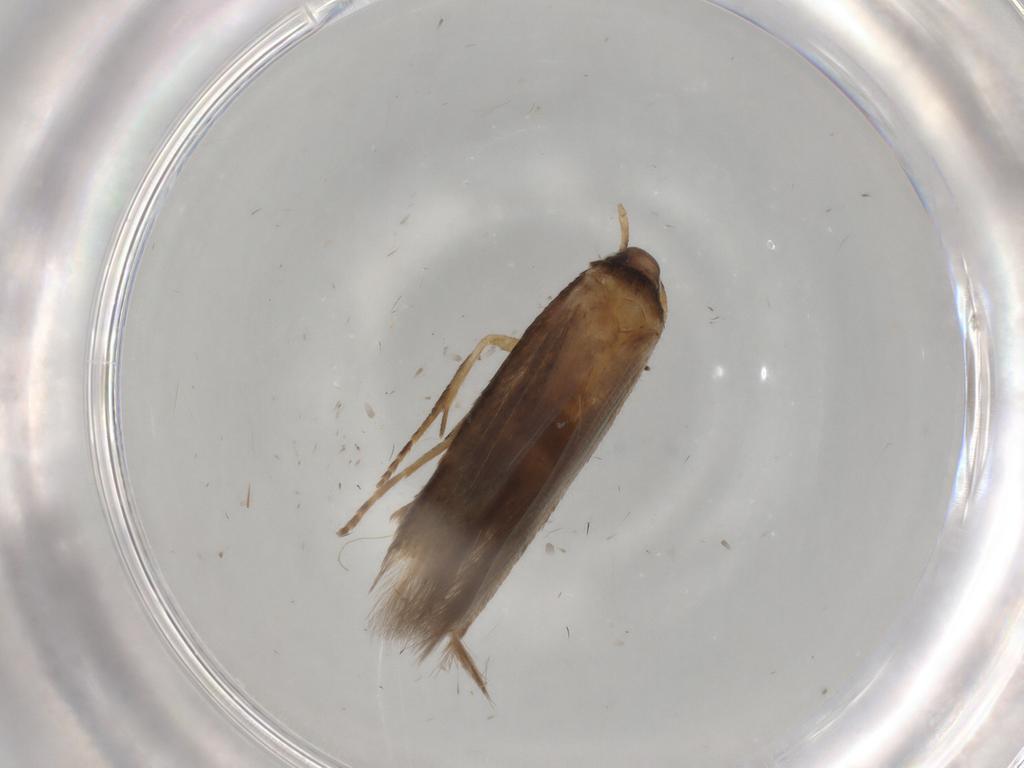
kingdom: Animalia
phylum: Arthropoda
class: Insecta
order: Lepidoptera
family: Cosmopterigidae
